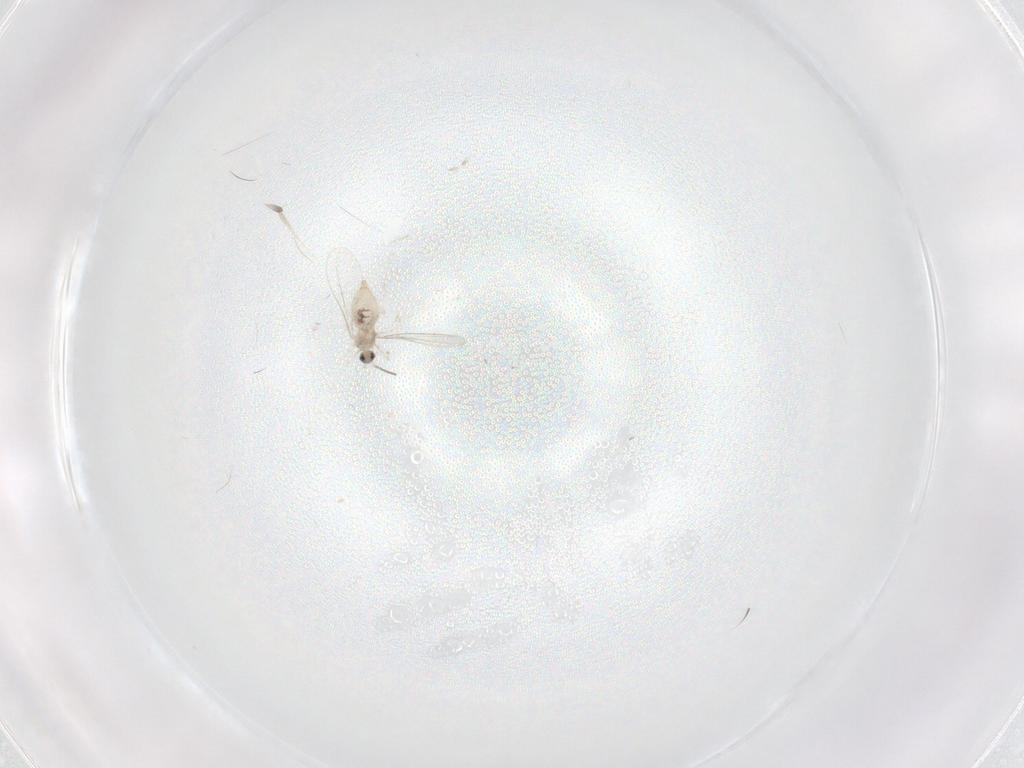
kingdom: Animalia
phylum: Arthropoda
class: Insecta
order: Diptera
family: Cecidomyiidae
